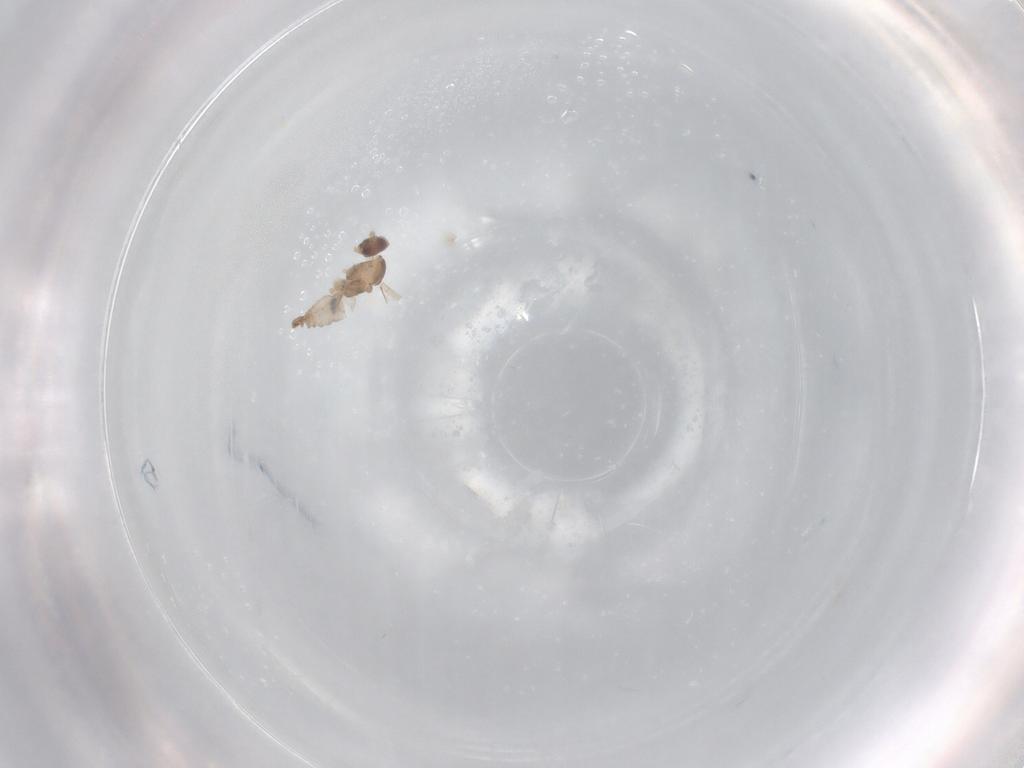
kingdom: Animalia
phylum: Arthropoda
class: Insecta
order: Diptera
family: Cecidomyiidae
